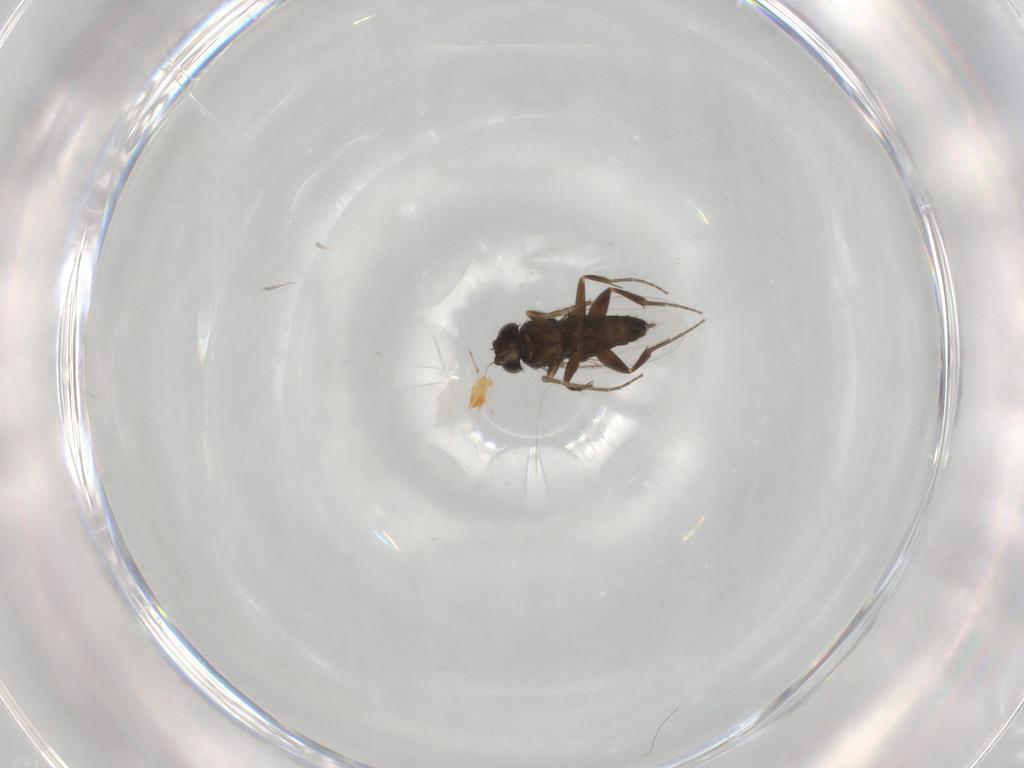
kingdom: Animalia
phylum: Arthropoda
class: Insecta
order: Diptera
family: Phoridae
